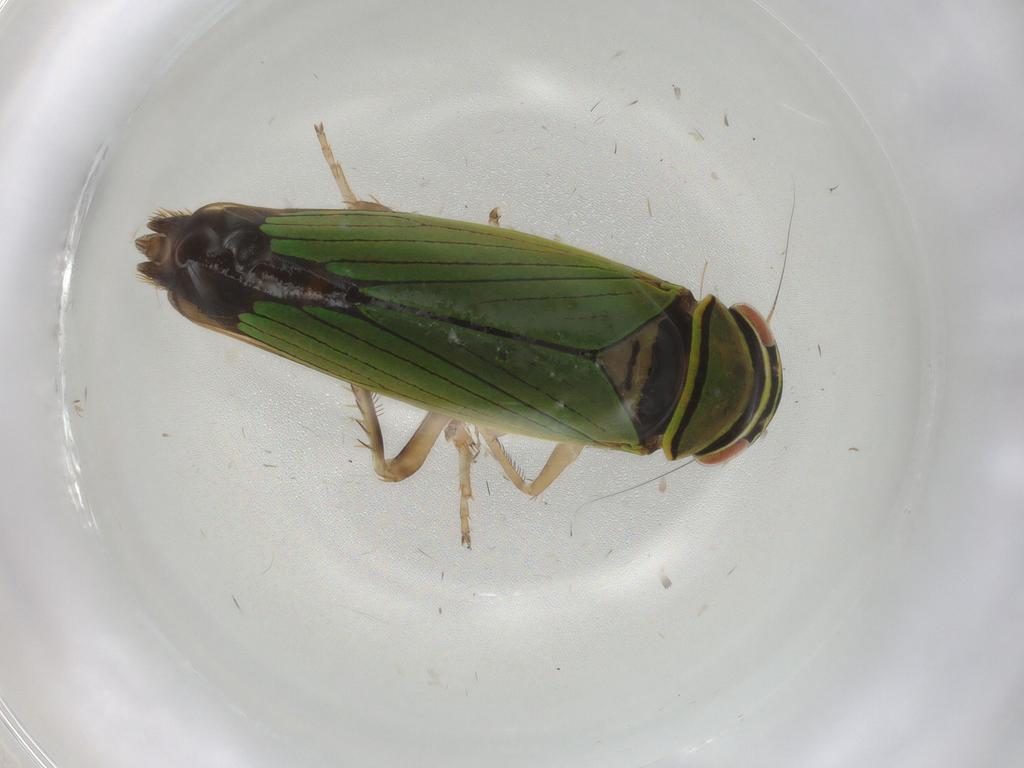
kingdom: Animalia
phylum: Arthropoda
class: Insecta
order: Hemiptera
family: Cicadellidae
